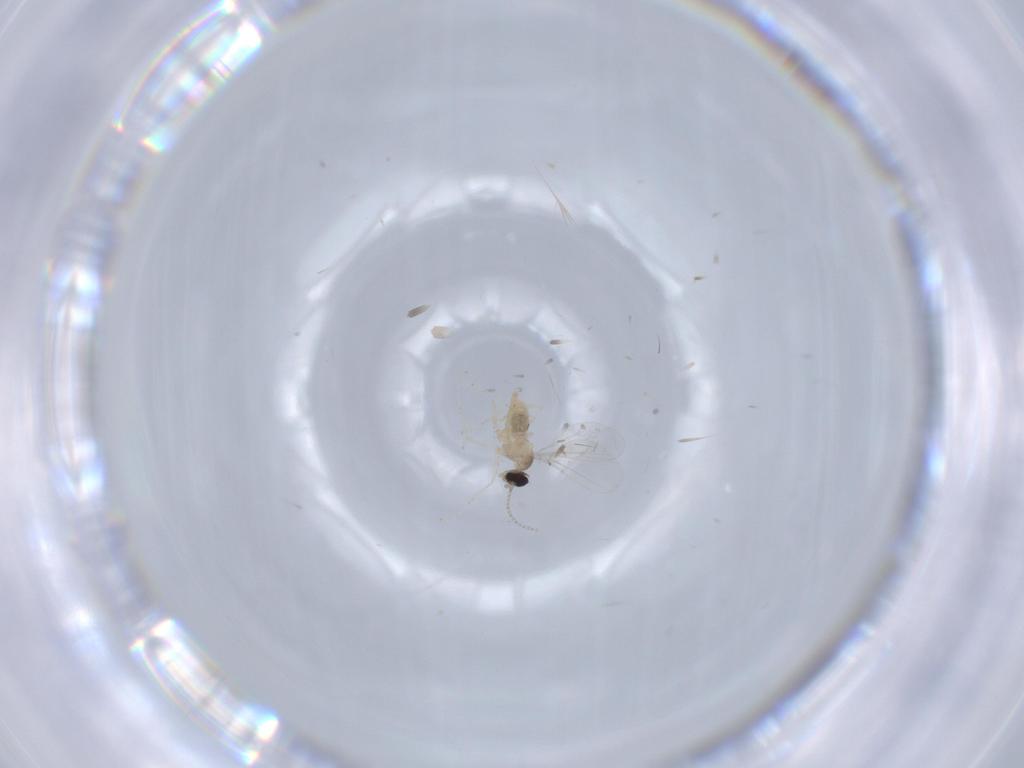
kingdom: Animalia
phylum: Arthropoda
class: Insecta
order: Diptera
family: Cecidomyiidae
